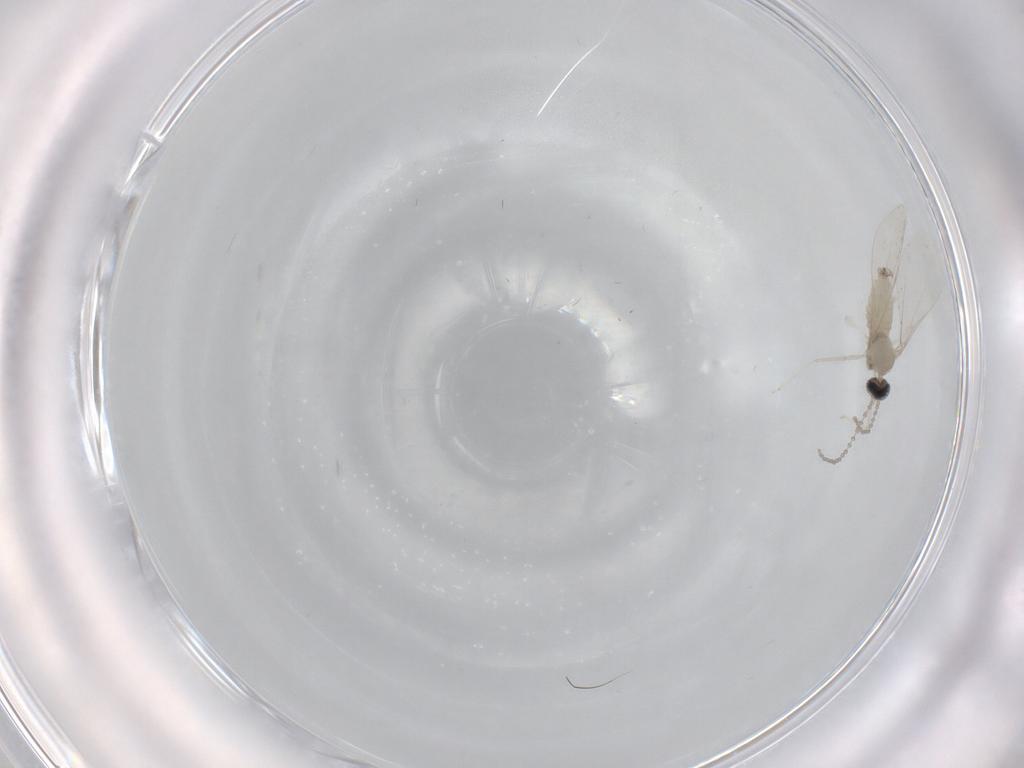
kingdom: Animalia
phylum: Arthropoda
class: Insecta
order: Diptera
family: Cecidomyiidae
